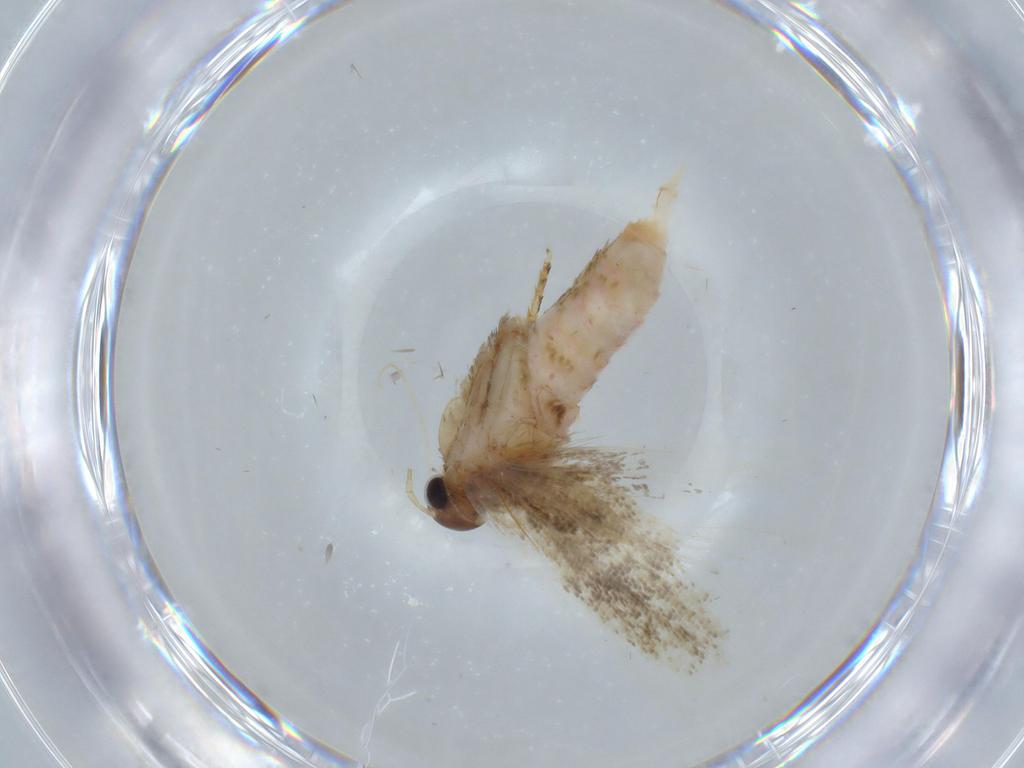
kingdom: Animalia
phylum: Arthropoda
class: Insecta
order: Lepidoptera
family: Gelechiidae
